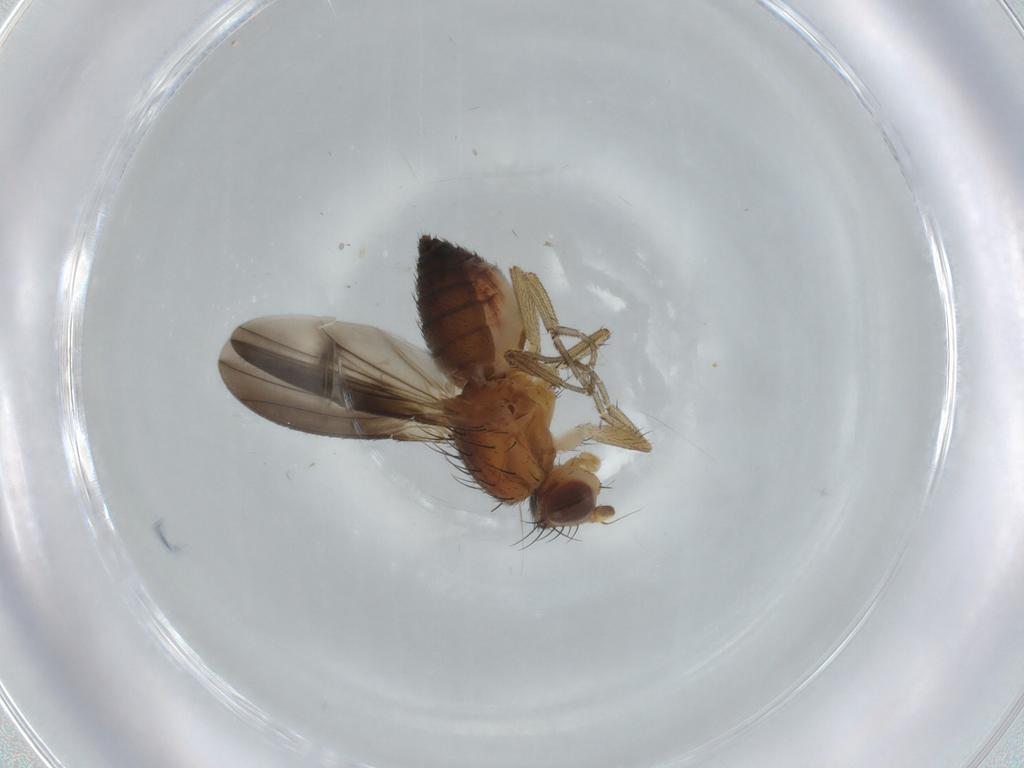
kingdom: Animalia
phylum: Arthropoda
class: Insecta
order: Diptera
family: Heleomyzidae
